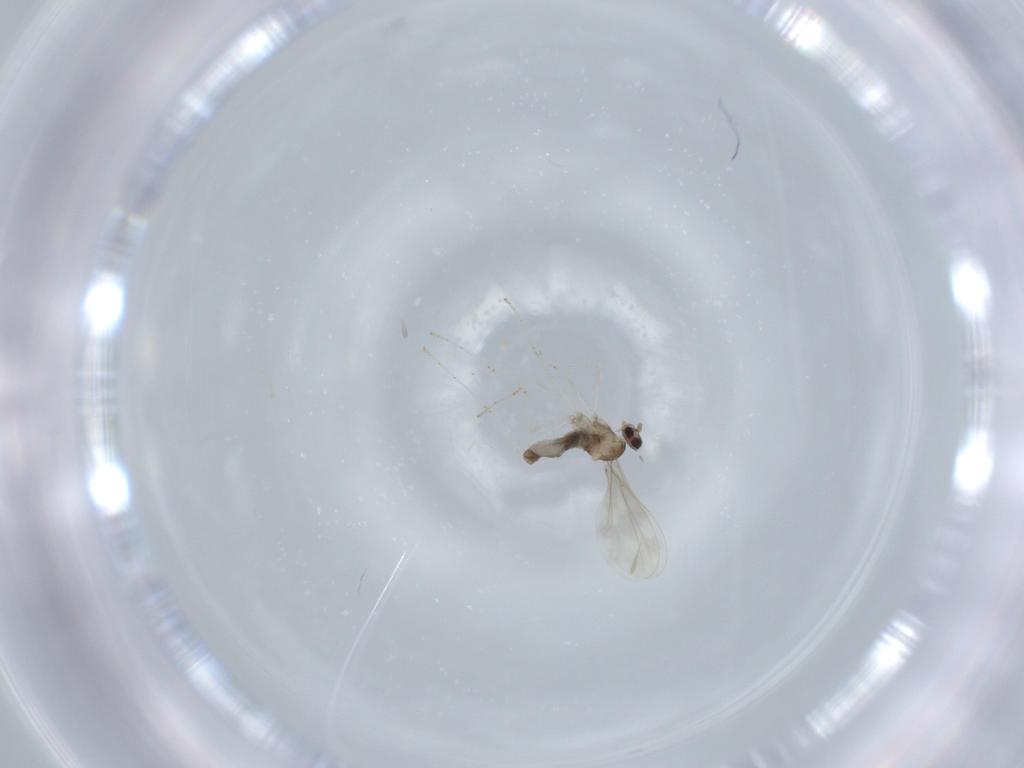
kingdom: Animalia
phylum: Arthropoda
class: Insecta
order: Diptera
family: Cecidomyiidae
